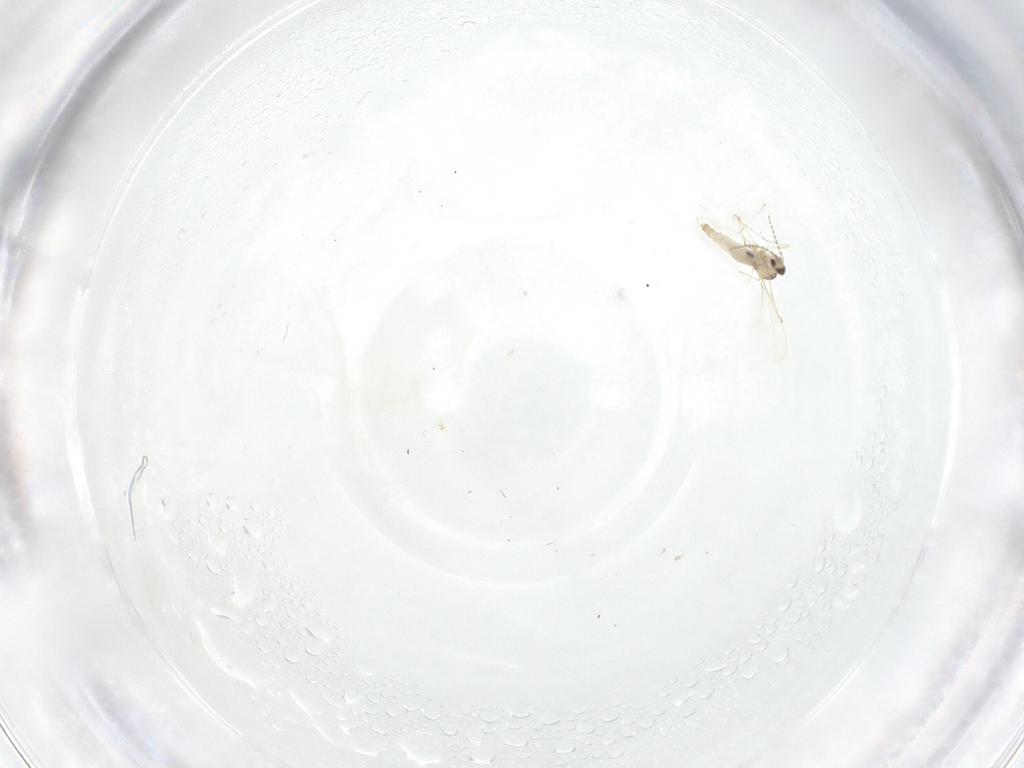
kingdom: Animalia
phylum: Arthropoda
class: Insecta
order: Diptera
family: Cecidomyiidae
